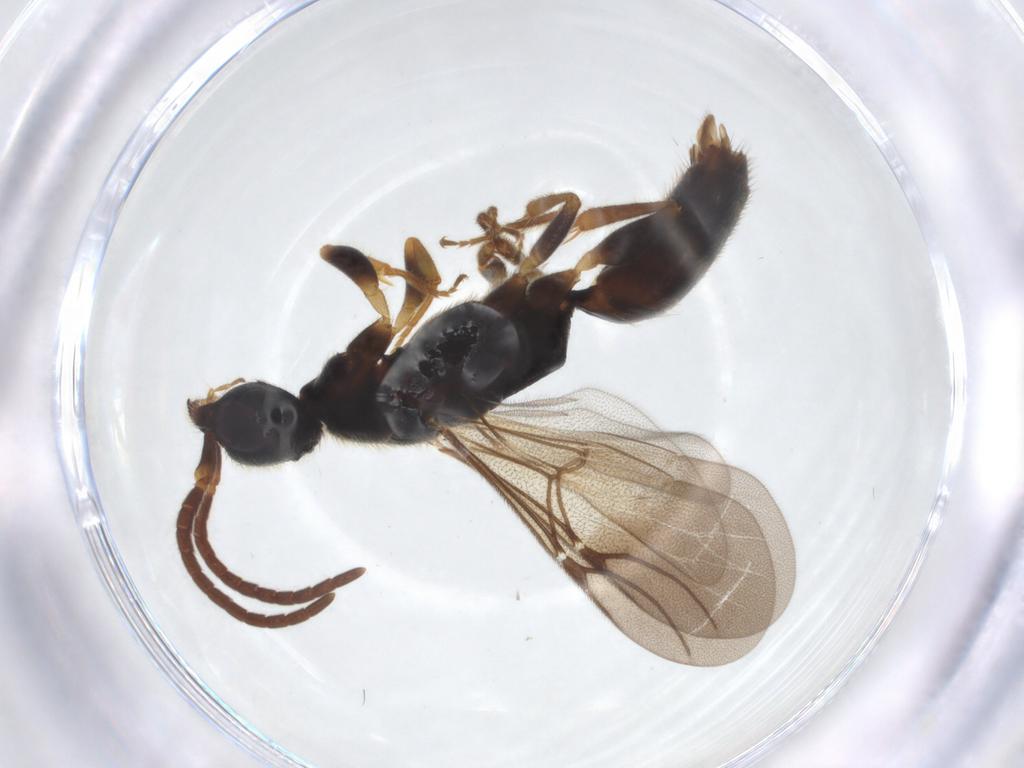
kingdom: Animalia
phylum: Arthropoda
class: Insecta
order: Hymenoptera
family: Bethylidae
